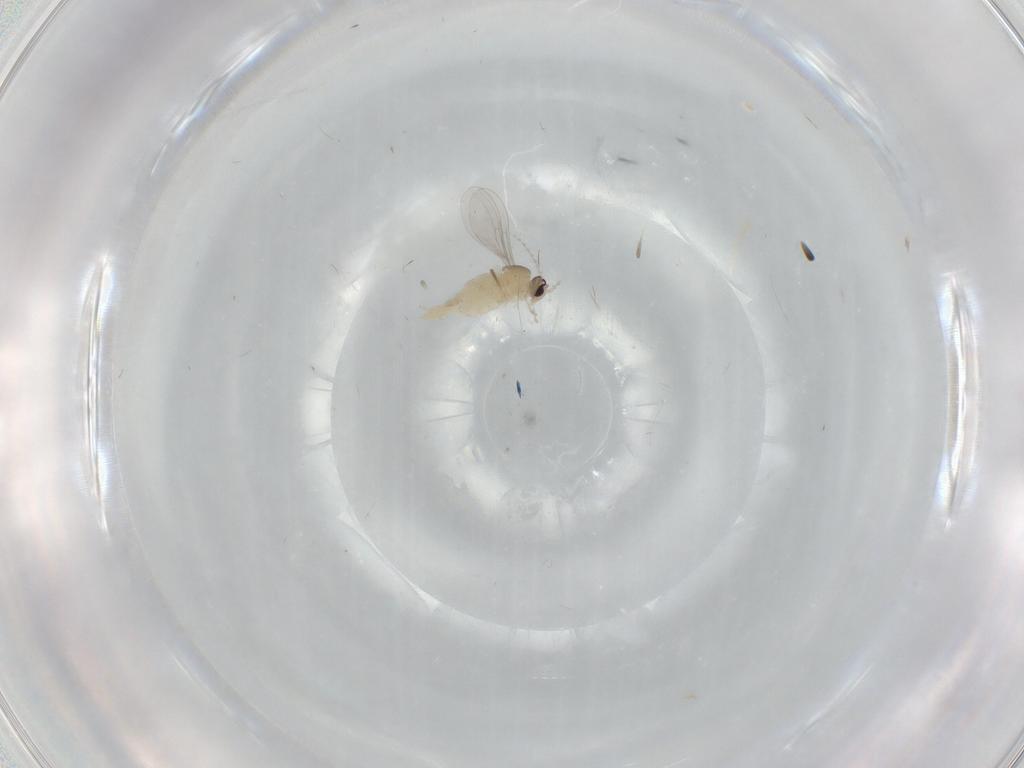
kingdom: Animalia
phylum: Arthropoda
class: Insecta
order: Diptera
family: Cecidomyiidae
